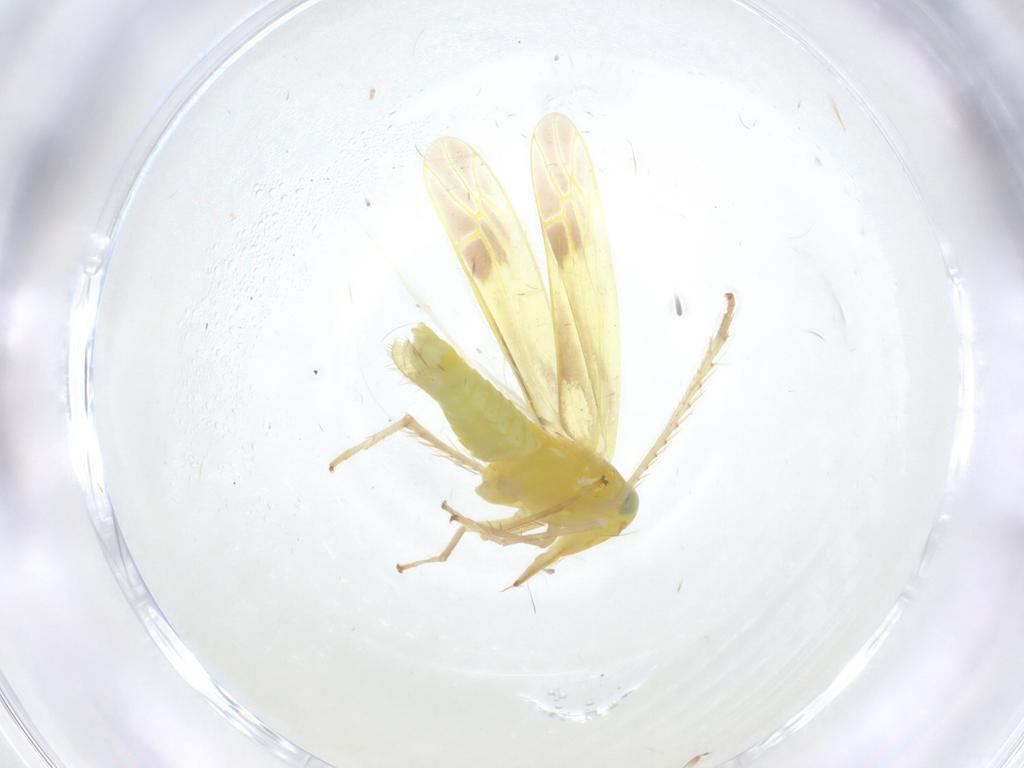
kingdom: Animalia
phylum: Arthropoda
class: Insecta
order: Hemiptera
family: Cicadellidae
